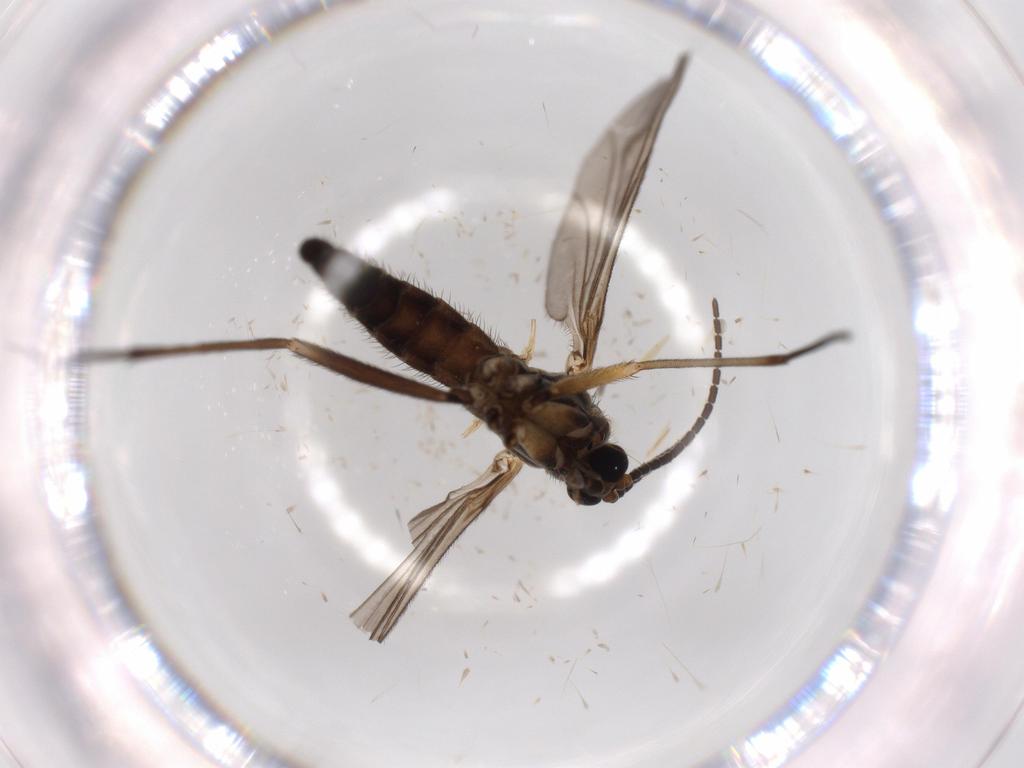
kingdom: Animalia
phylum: Arthropoda
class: Insecta
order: Diptera
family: Sciaridae
